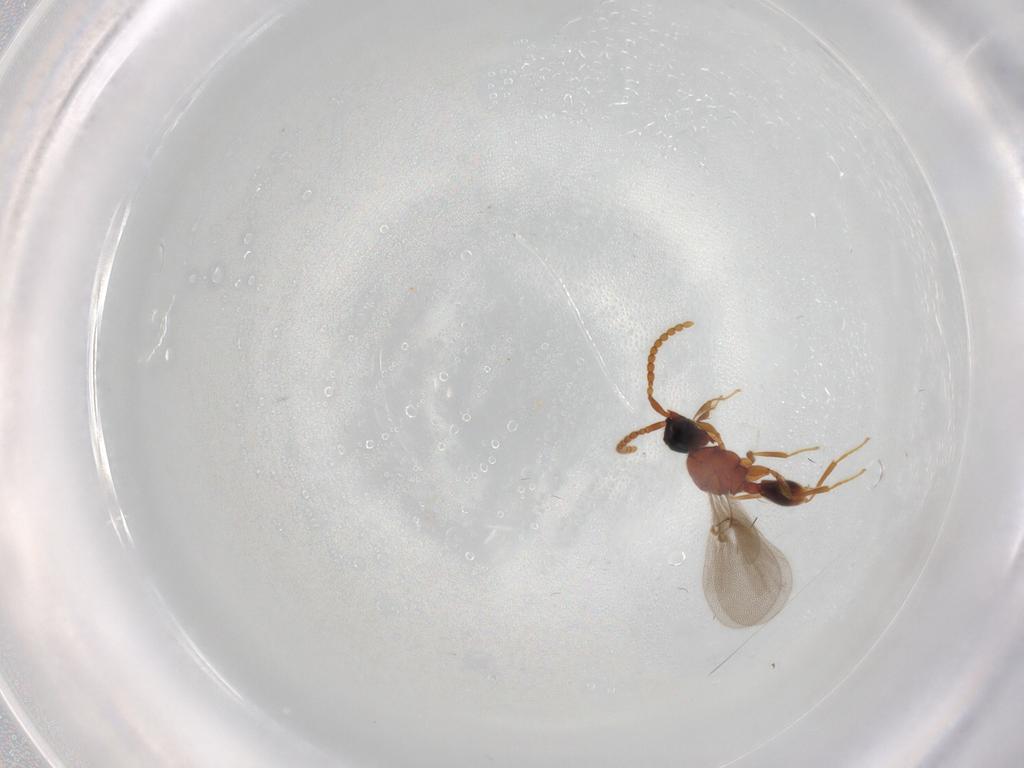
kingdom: Animalia
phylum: Arthropoda
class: Insecta
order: Hymenoptera
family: Diapriidae
